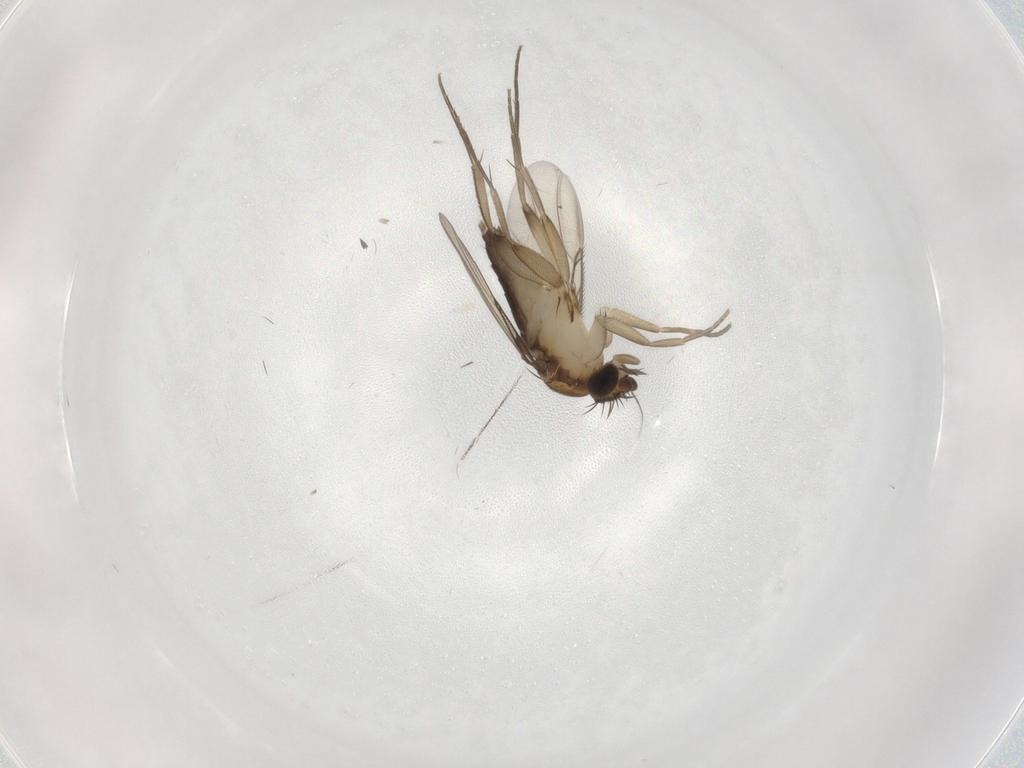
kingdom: Animalia
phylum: Arthropoda
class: Insecta
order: Diptera
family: Phoridae
